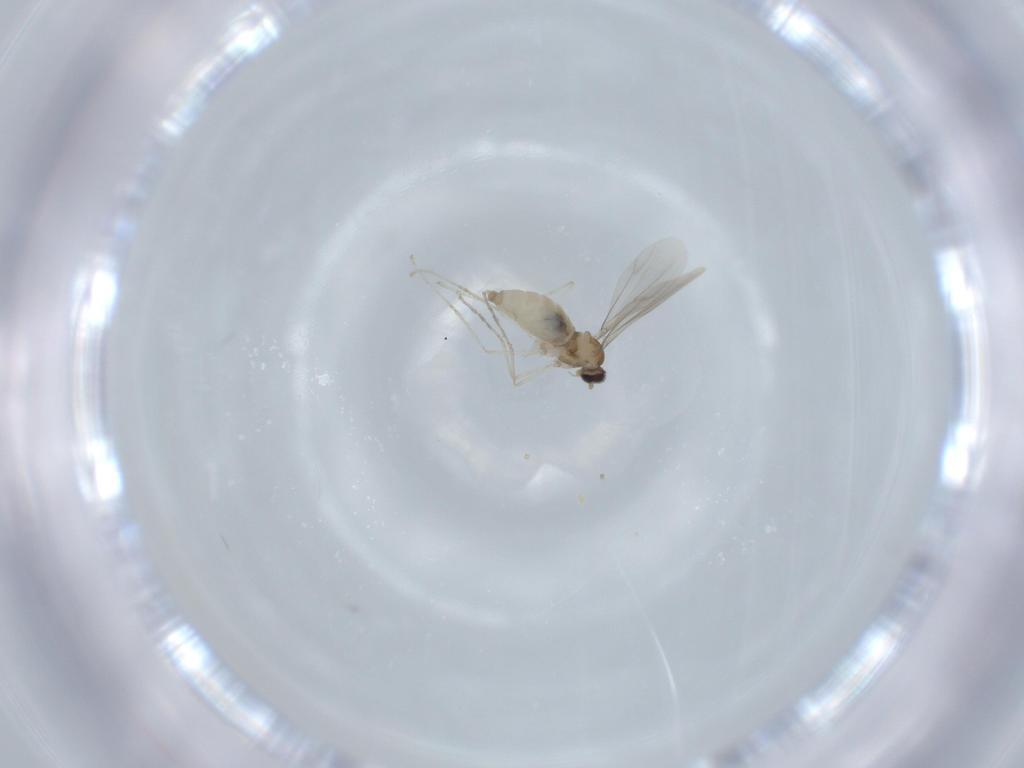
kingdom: Animalia
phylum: Arthropoda
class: Insecta
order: Diptera
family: Cecidomyiidae
